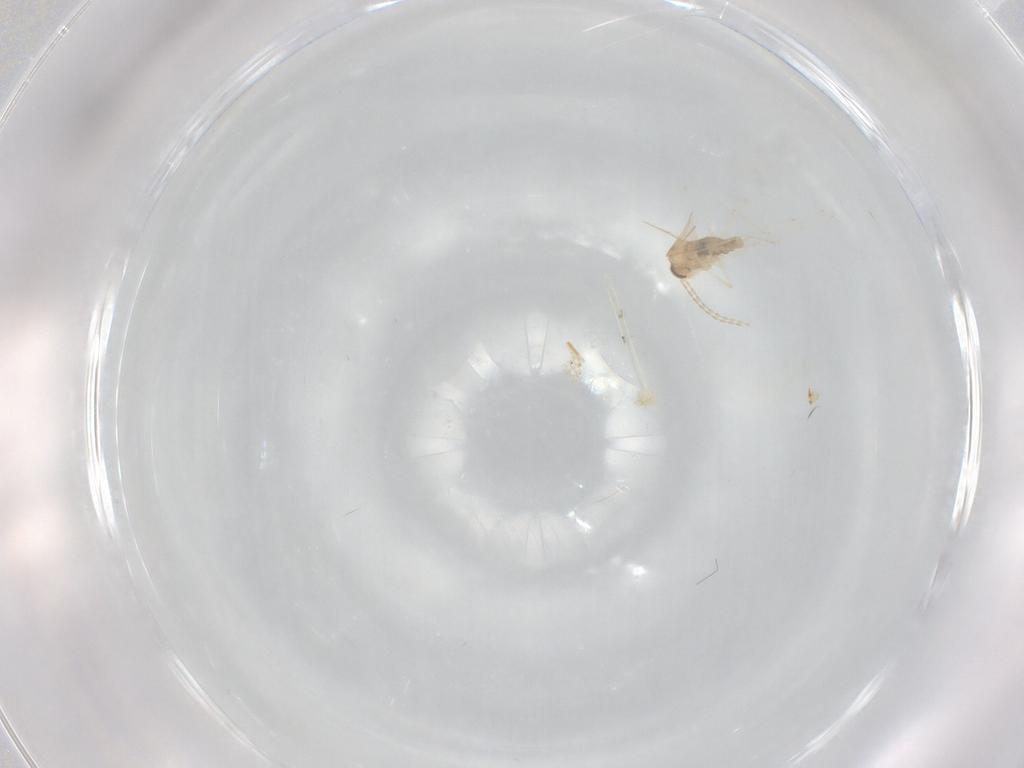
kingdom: Animalia
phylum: Arthropoda
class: Insecta
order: Diptera
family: Cecidomyiidae
